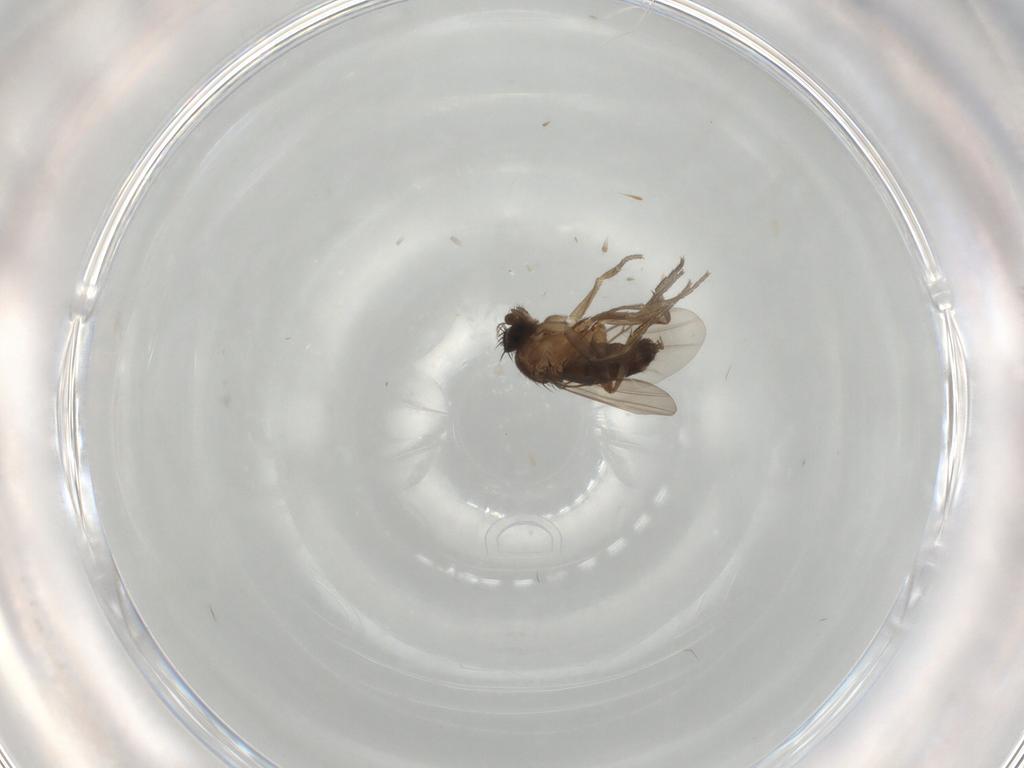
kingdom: Animalia
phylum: Arthropoda
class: Insecta
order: Diptera
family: Phoridae
